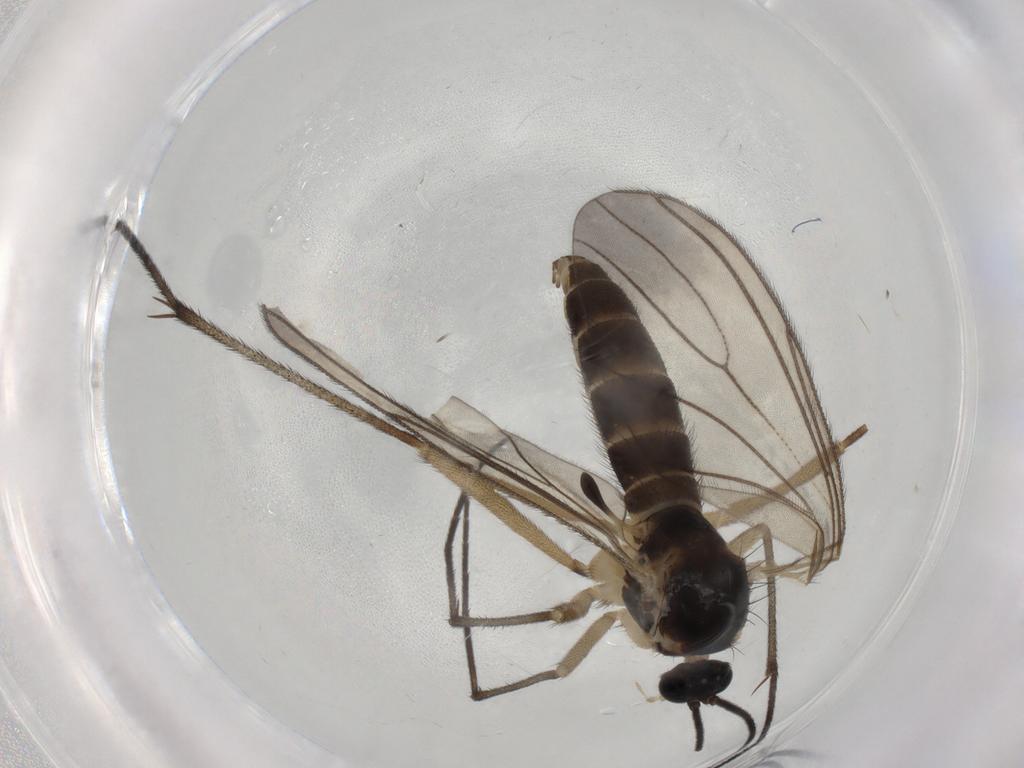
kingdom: Animalia
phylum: Arthropoda
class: Insecta
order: Diptera
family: Sciaridae
